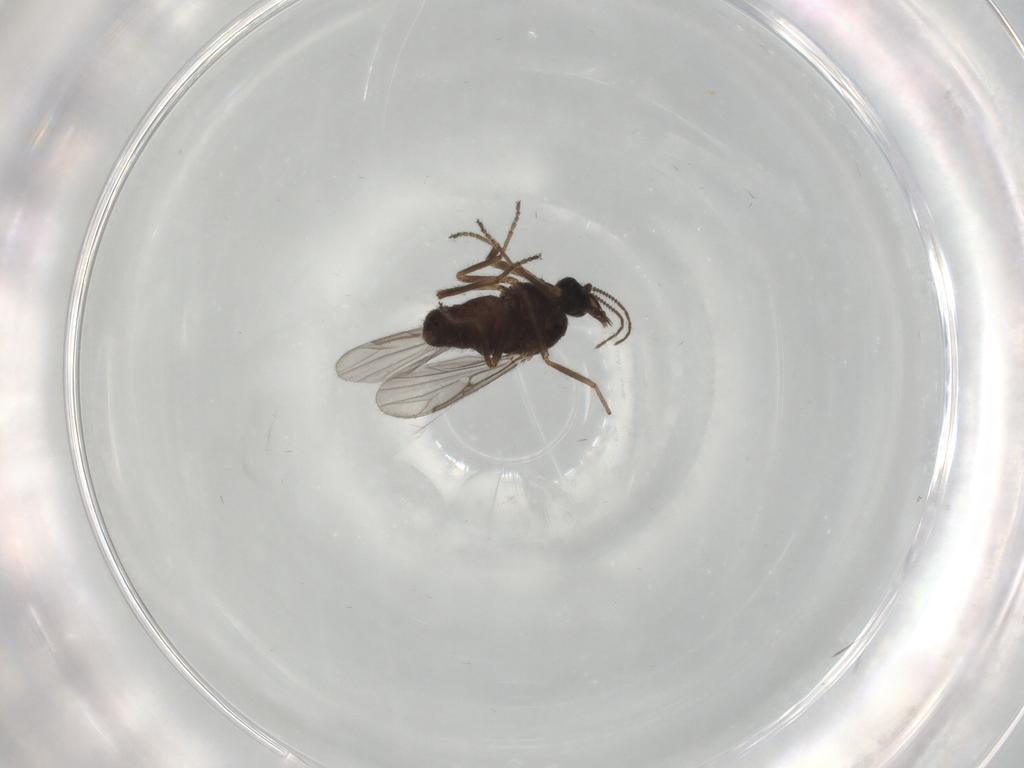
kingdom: Animalia
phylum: Arthropoda
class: Insecta
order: Diptera
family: Ceratopogonidae
